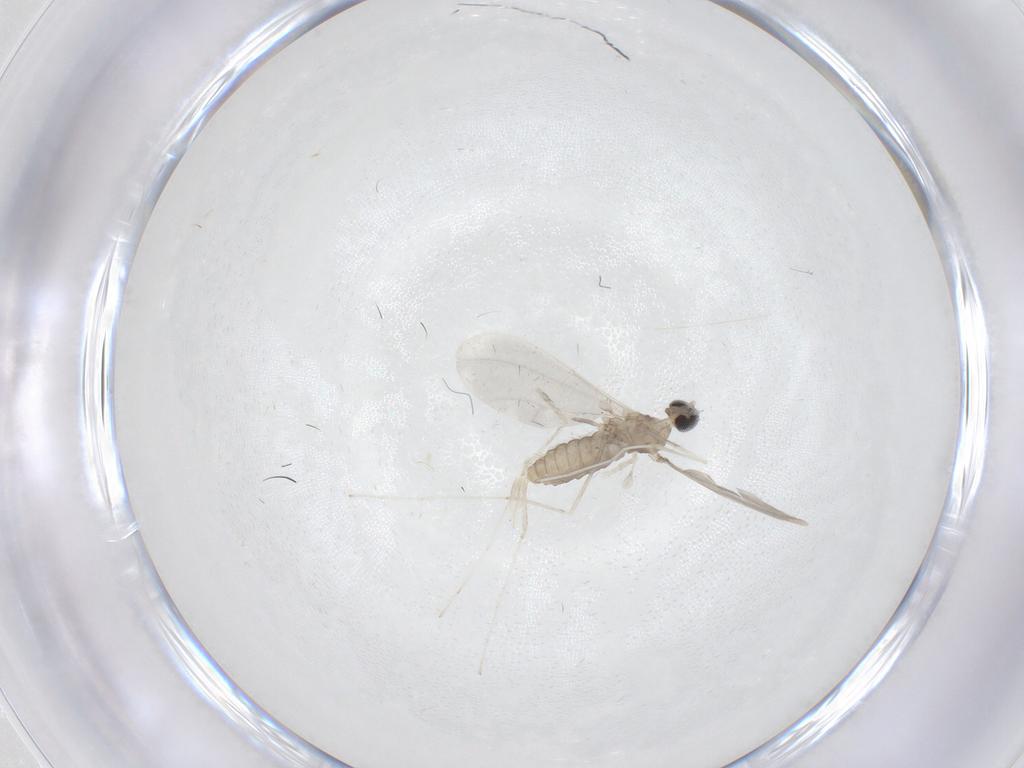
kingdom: Animalia
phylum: Arthropoda
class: Insecta
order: Diptera
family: Cecidomyiidae
